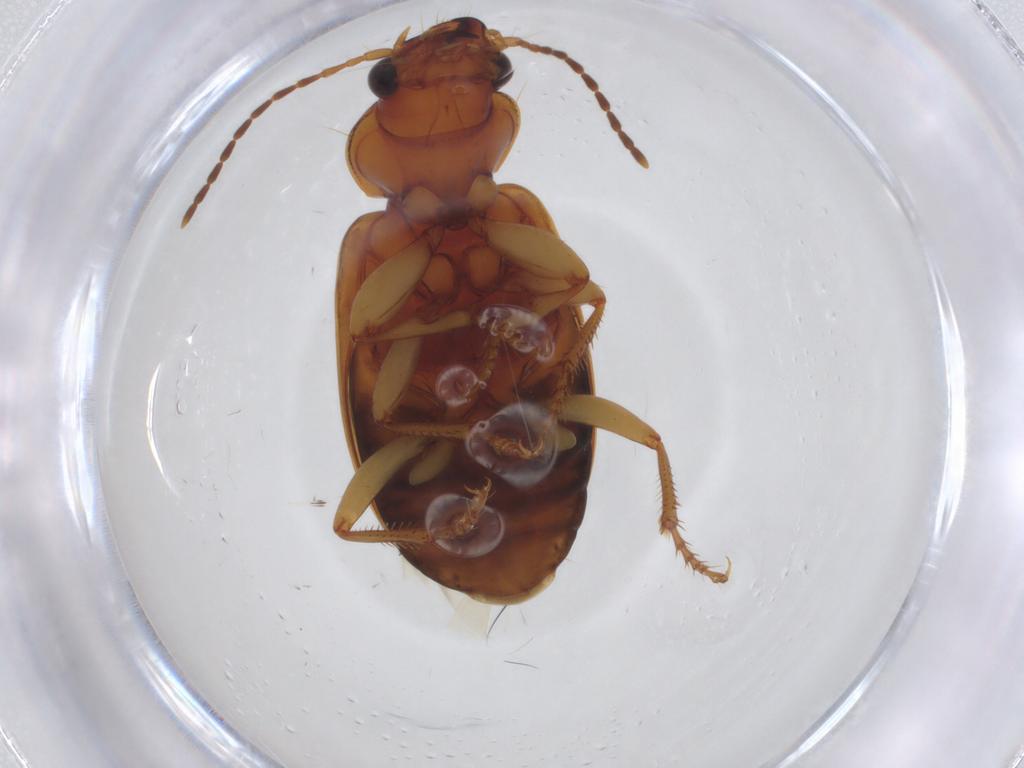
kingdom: Animalia
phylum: Arthropoda
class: Insecta
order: Coleoptera
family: Carabidae
